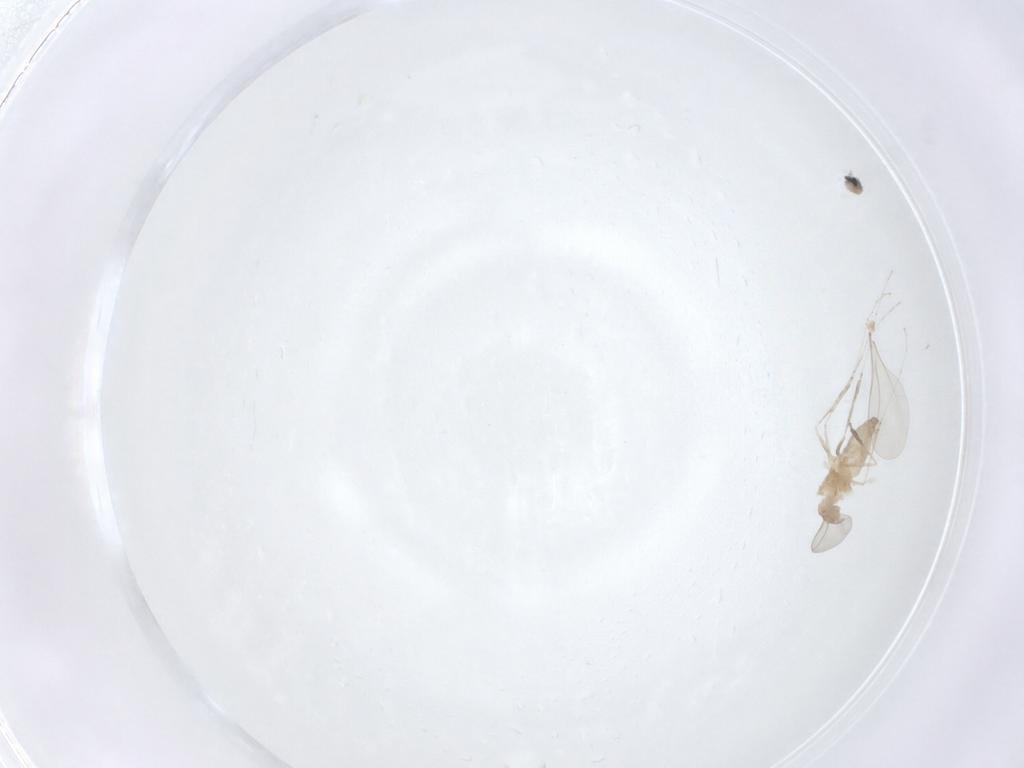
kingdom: Animalia
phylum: Arthropoda
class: Insecta
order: Diptera
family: Cecidomyiidae
